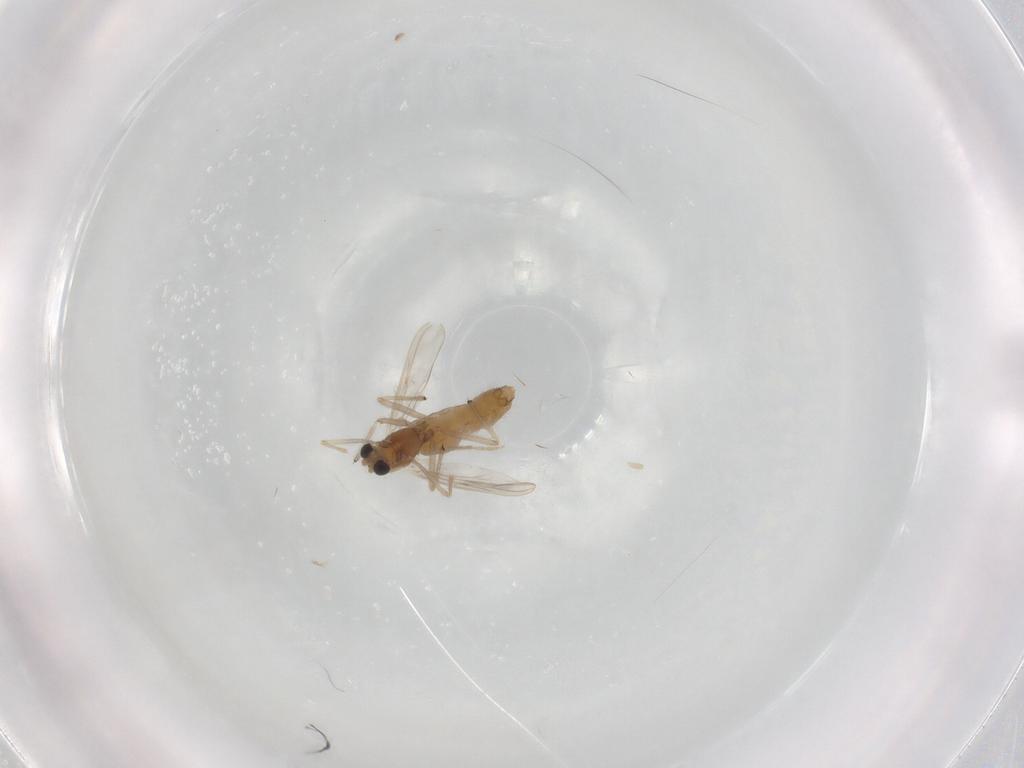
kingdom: Animalia
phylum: Arthropoda
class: Insecta
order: Diptera
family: Chironomidae
